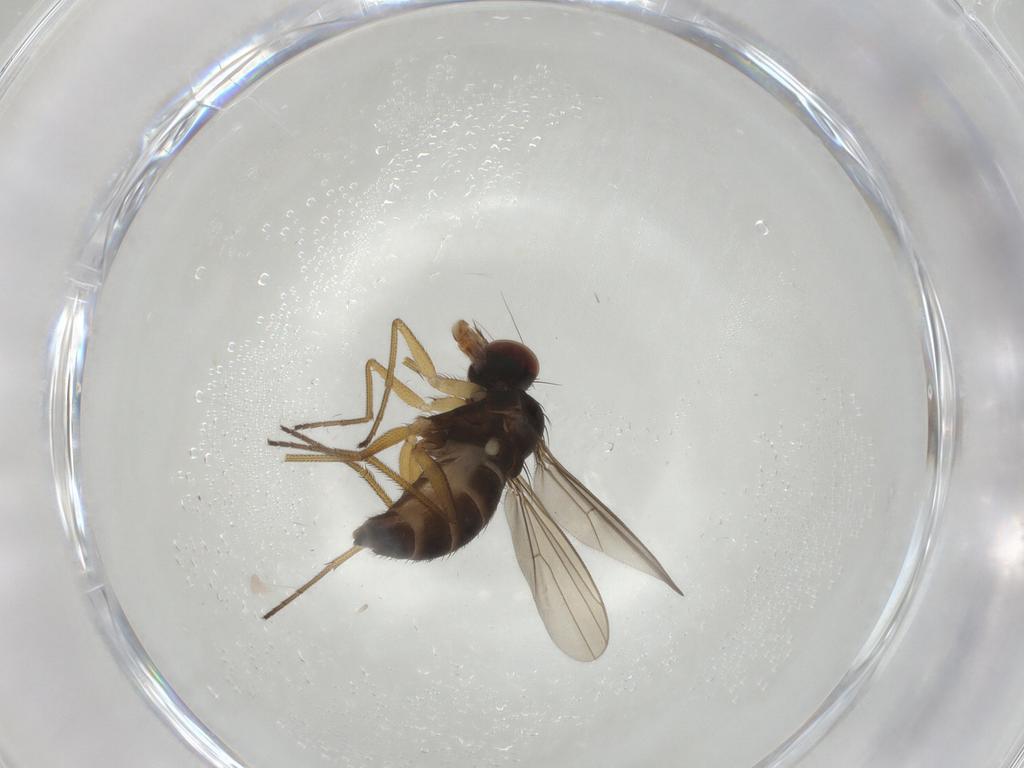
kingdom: Animalia
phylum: Arthropoda
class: Insecta
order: Diptera
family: Dolichopodidae
